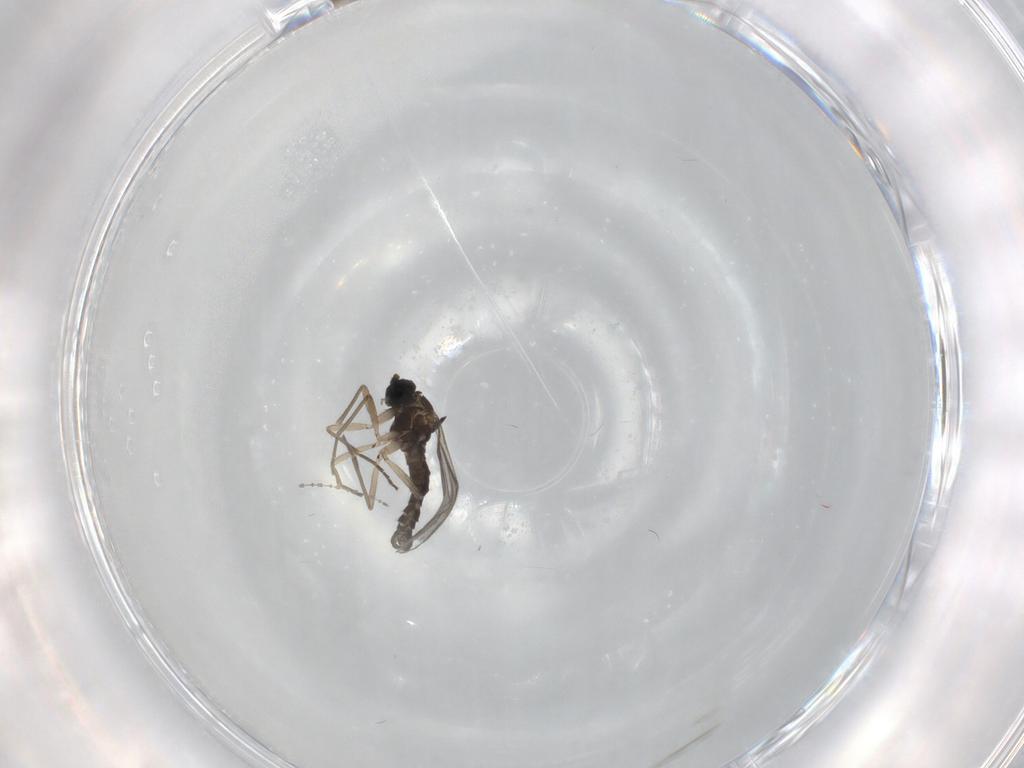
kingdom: Animalia
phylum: Arthropoda
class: Insecta
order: Diptera
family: Sciaridae
